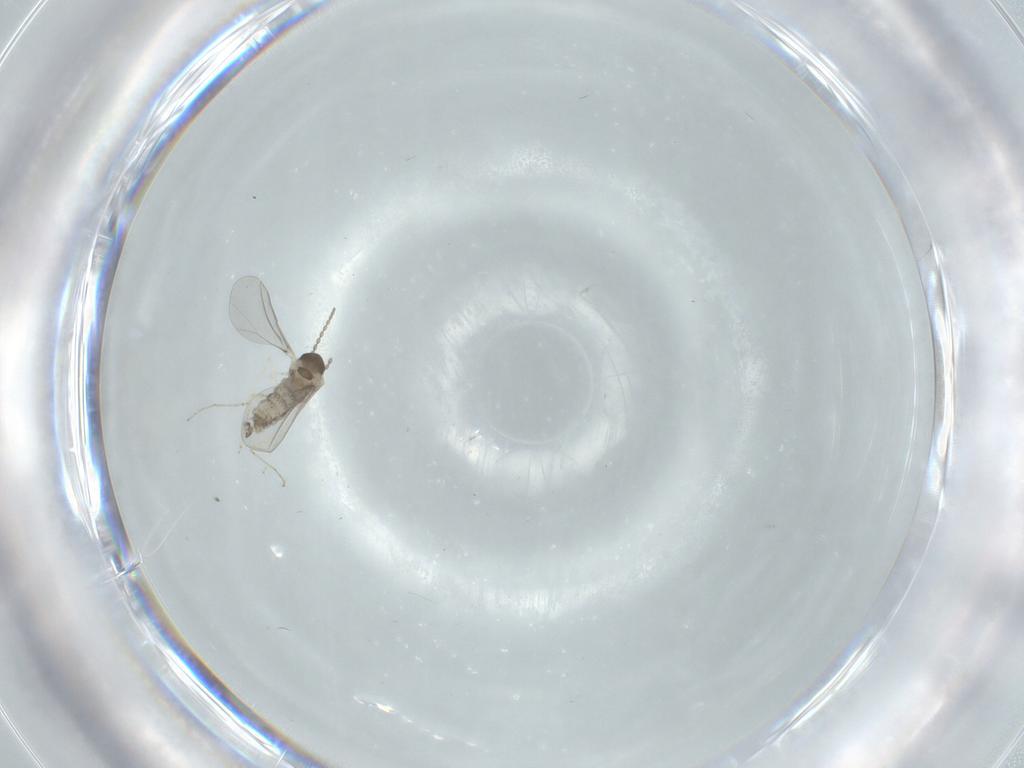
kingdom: Animalia
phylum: Arthropoda
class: Insecta
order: Diptera
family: Cecidomyiidae
